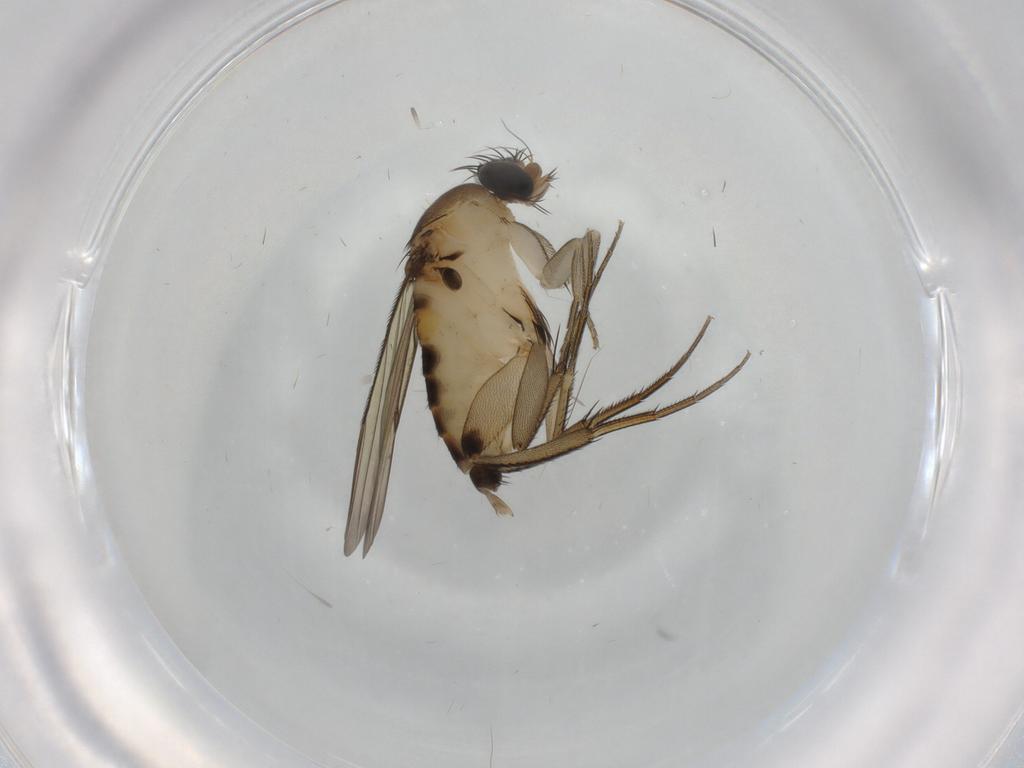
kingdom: Animalia
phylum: Arthropoda
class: Insecta
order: Diptera
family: Phoridae
